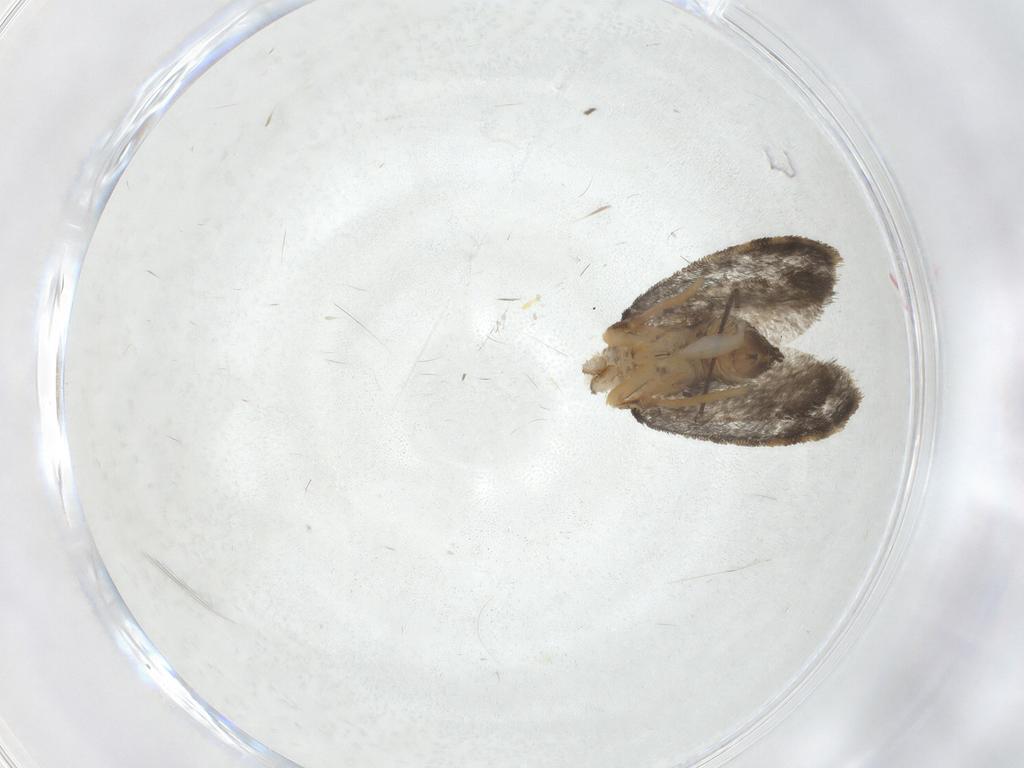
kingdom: Animalia
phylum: Arthropoda
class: Insecta
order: Lepidoptera
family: Psychidae
